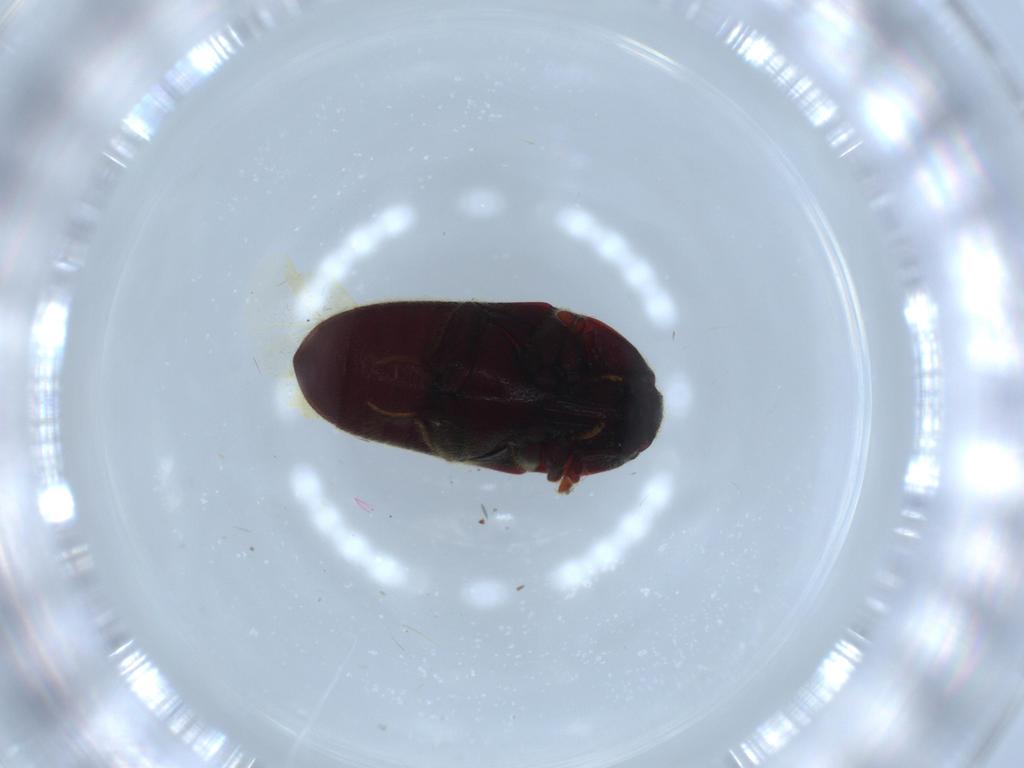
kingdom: Animalia
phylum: Arthropoda
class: Insecta
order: Coleoptera
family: Throscidae
